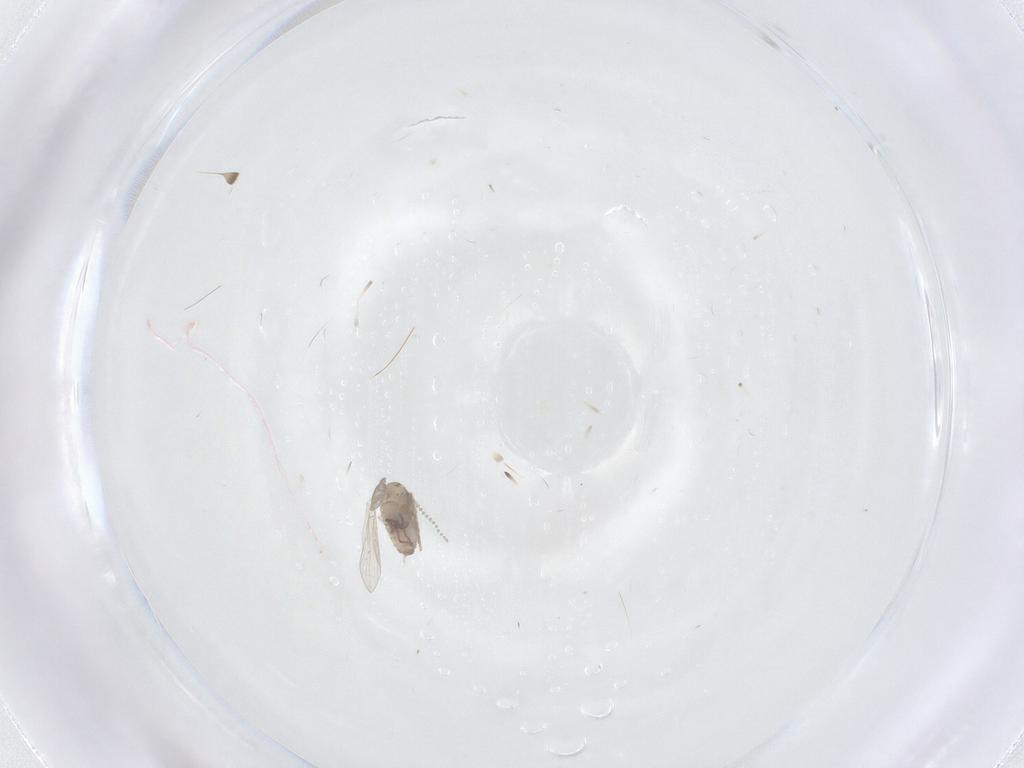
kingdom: Animalia
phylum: Arthropoda
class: Insecta
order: Diptera
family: Psychodidae
